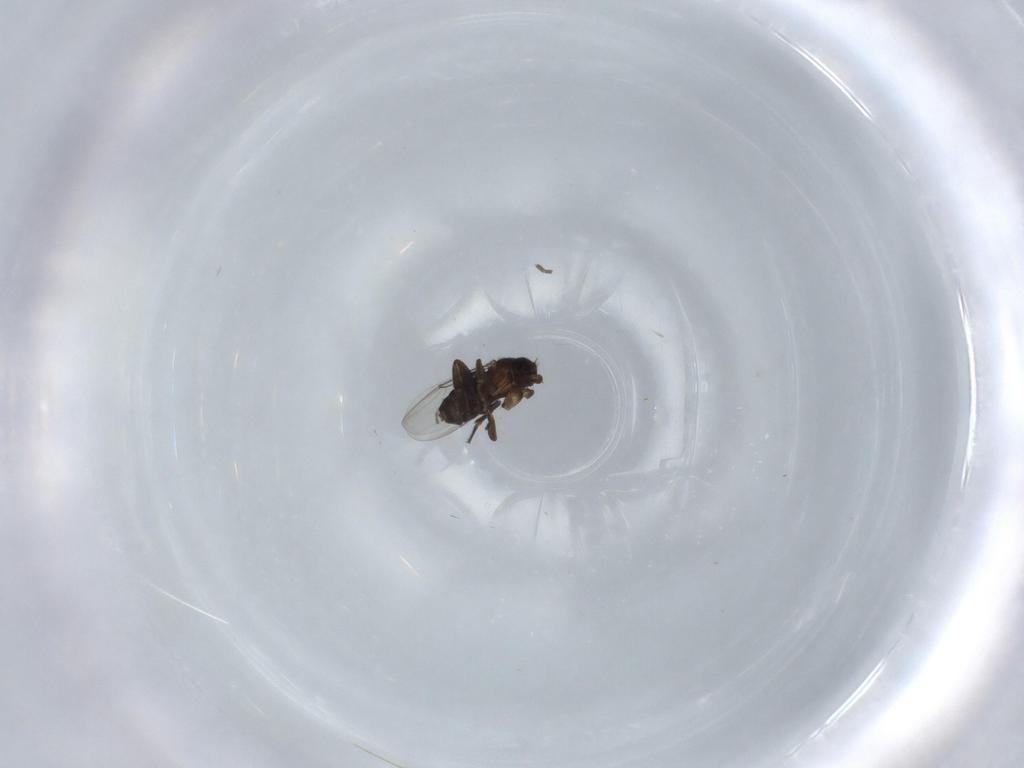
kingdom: Animalia
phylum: Arthropoda
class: Insecta
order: Diptera
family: Phoridae
